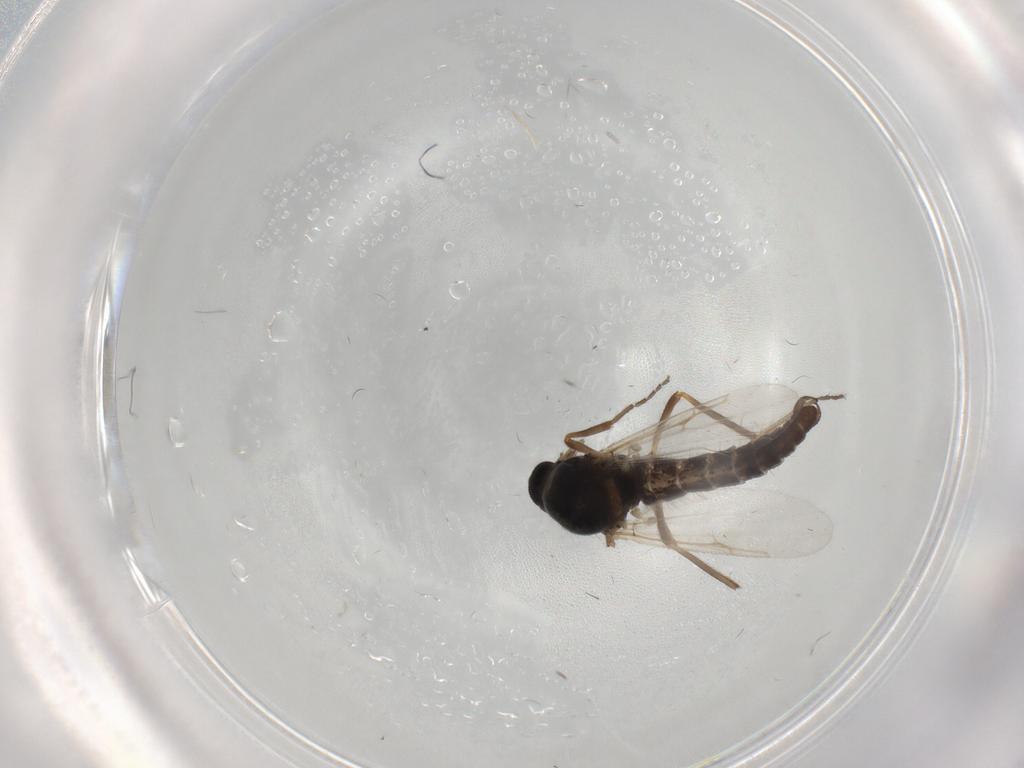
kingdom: Animalia
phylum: Arthropoda
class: Insecta
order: Diptera
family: Ceratopogonidae
